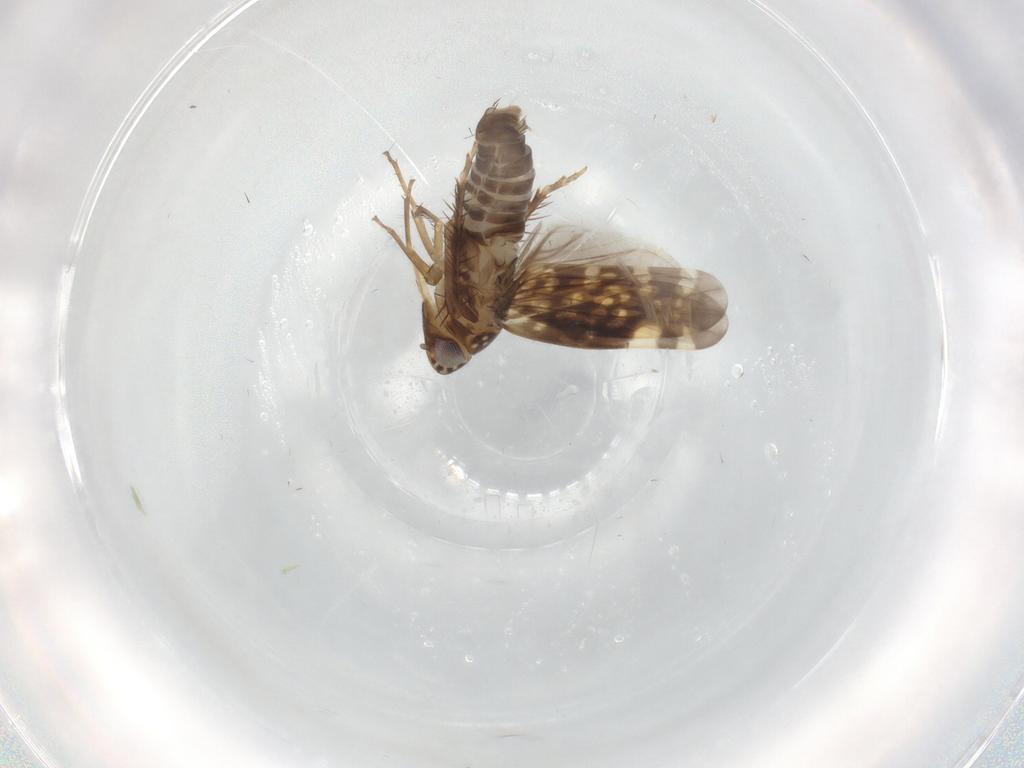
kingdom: Animalia
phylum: Arthropoda
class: Insecta
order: Hemiptera
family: Cicadellidae
